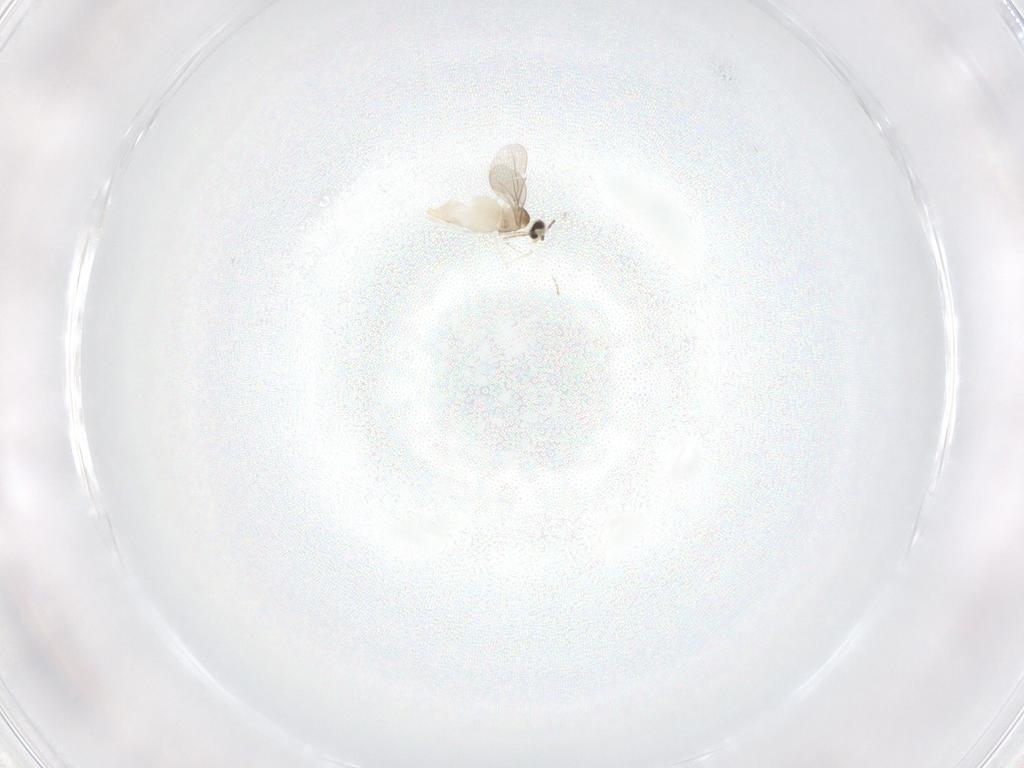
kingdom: Animalia
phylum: Arthropoda
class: Insecta
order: Diptera
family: Cecidomyiidae
